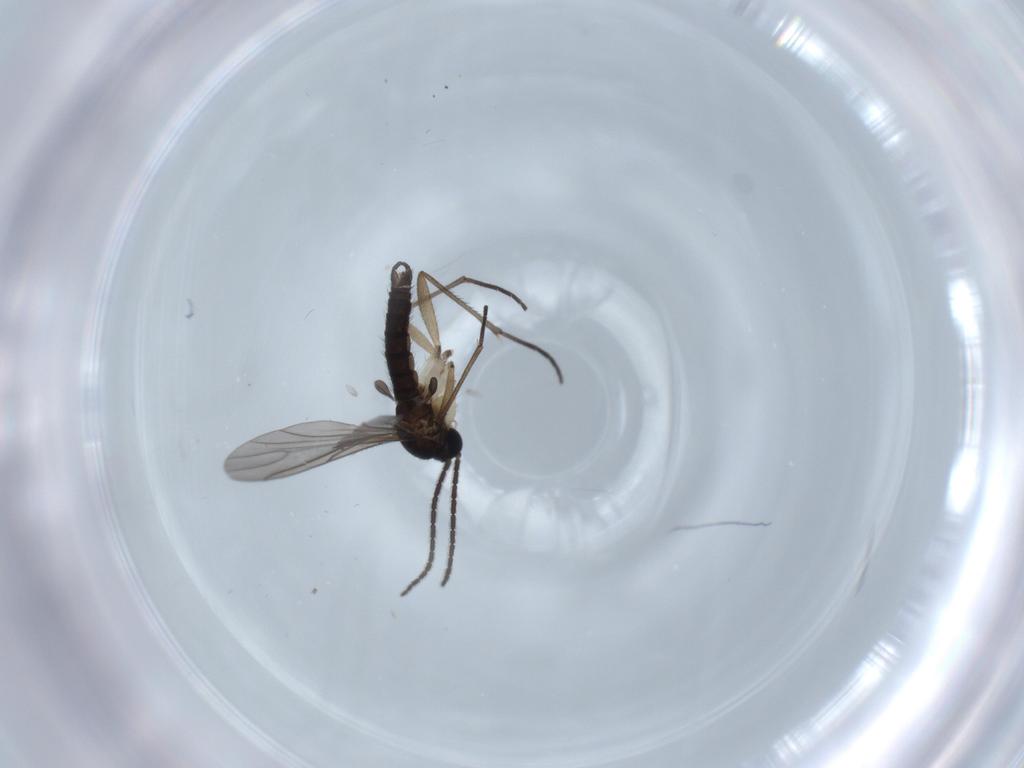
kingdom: Animalia
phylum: Arthropoda
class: Insecta
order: Diptera
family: Sciaridae
